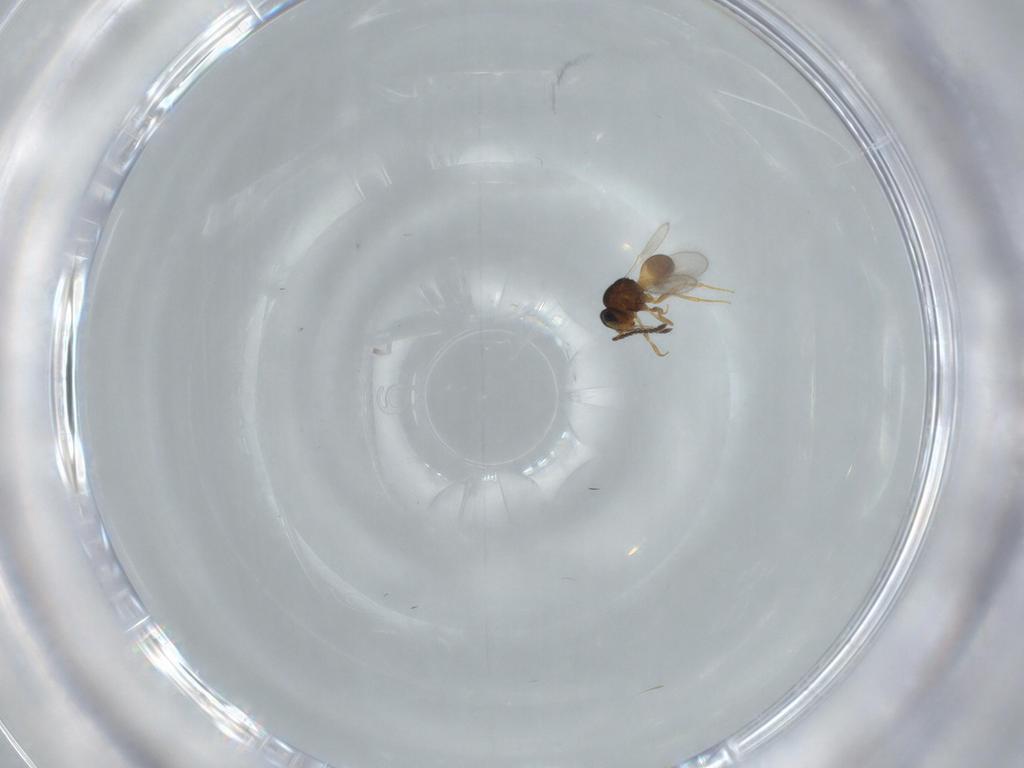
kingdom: Animalia
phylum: Arthropoda
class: Insecta
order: Hymenoptera
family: Scelionidae
